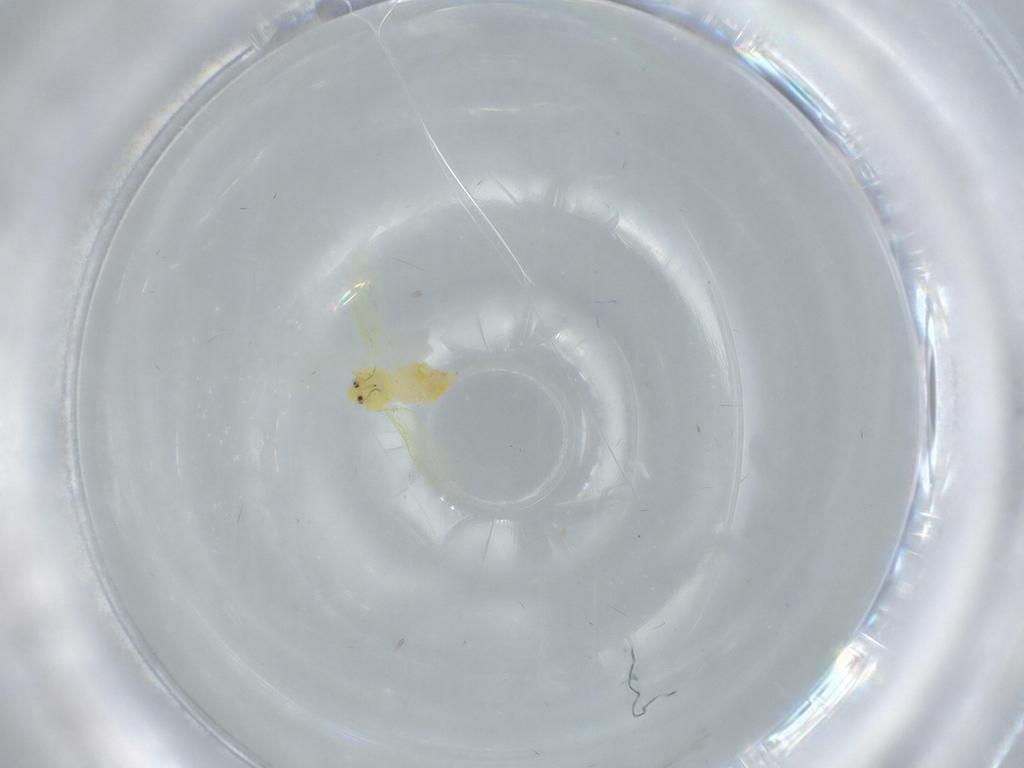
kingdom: Animalia
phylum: Arthropoda
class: Insecta
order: Hemiptera
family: Aleyrodidae
